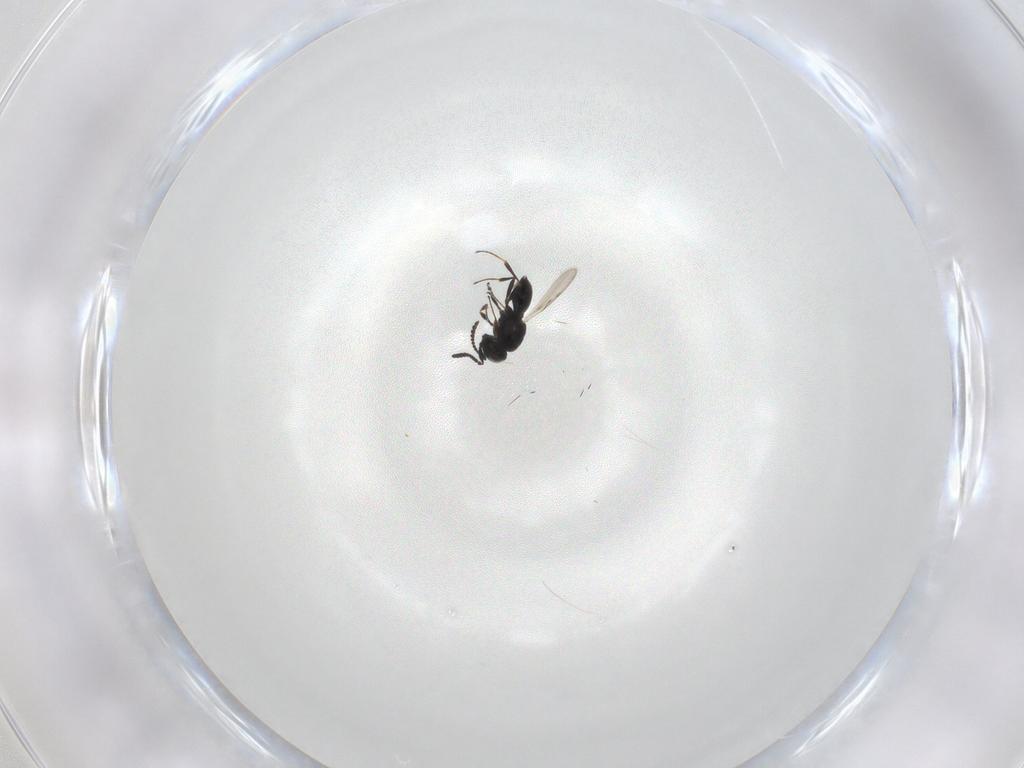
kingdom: Animalia
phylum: Arthropoda
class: Insecta
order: Hymenoptera
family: Scelionidae
